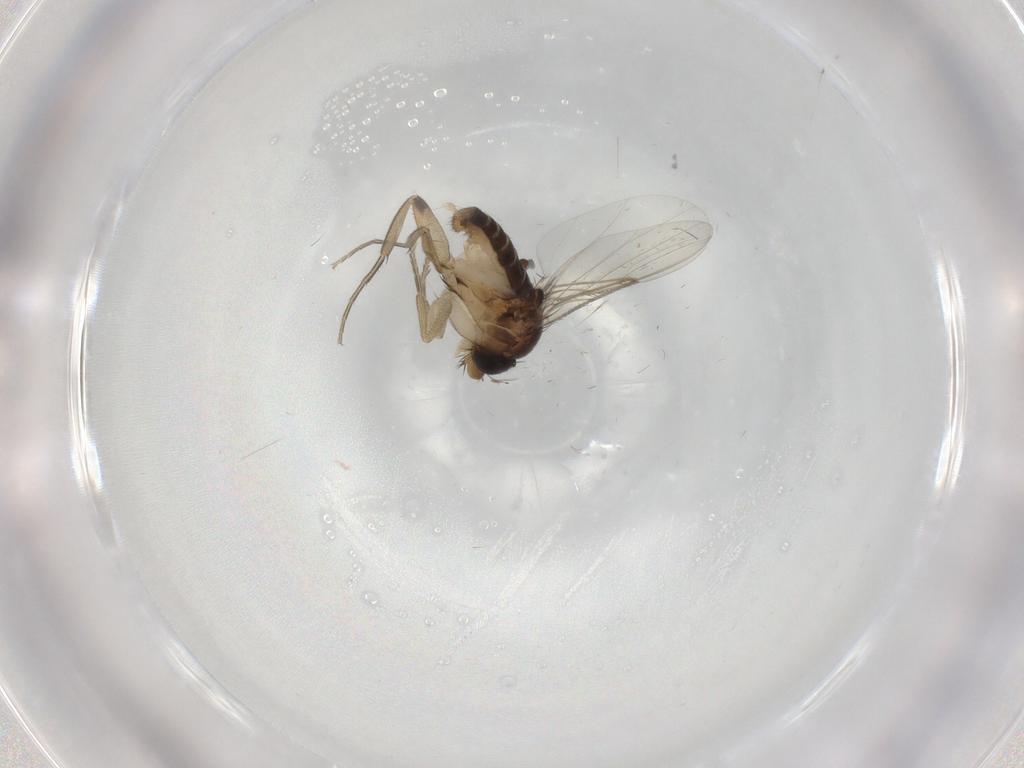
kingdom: Animalia
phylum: Arthropoda
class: Insecta
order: Diptera
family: Phoridae
